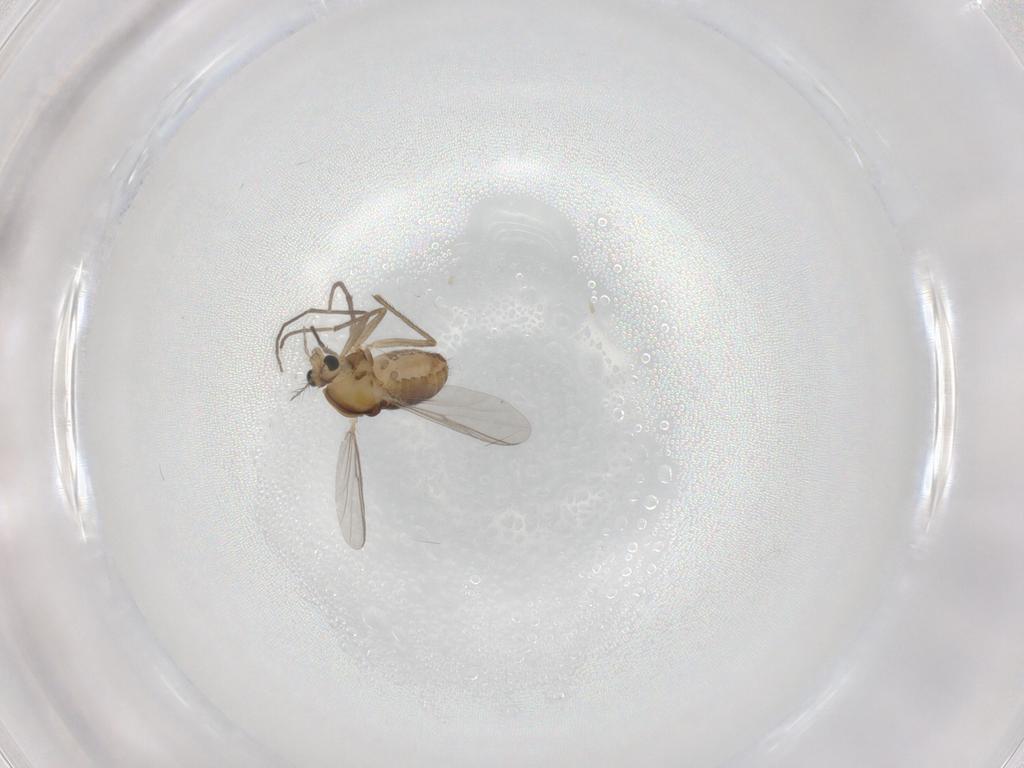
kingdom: Animalia
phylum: Arthropoda
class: Insecta
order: Diptera
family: Chironomidae
